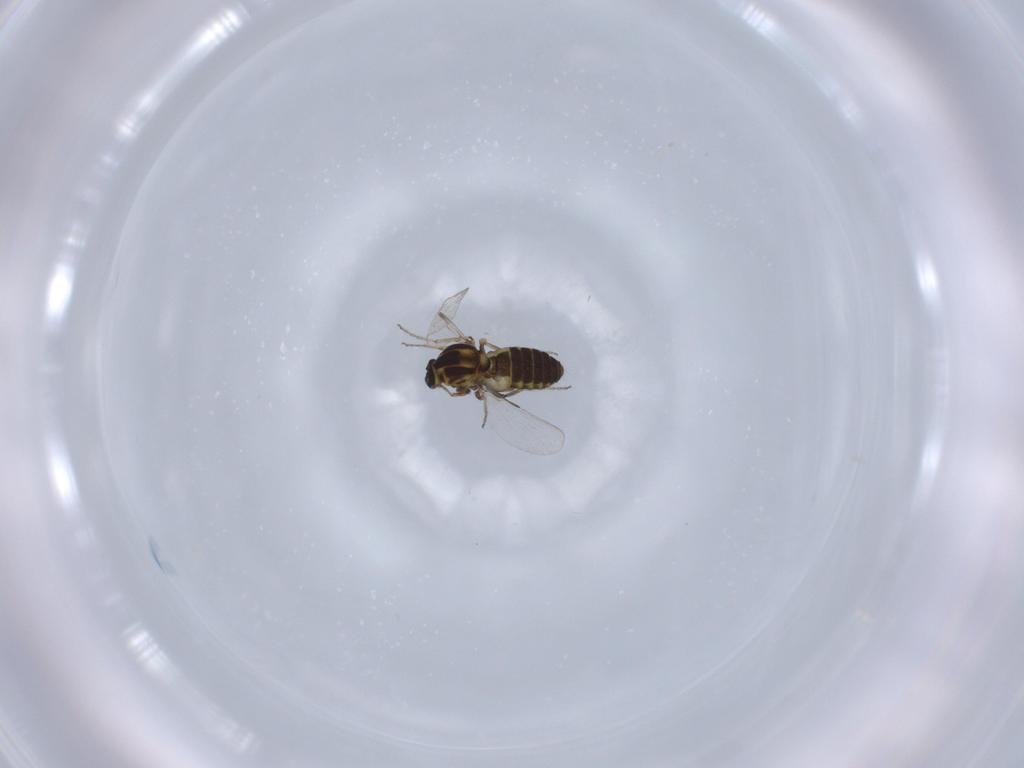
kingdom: Animalia
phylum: Arthropoda
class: Insecta
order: Diptera
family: Ceratopogonidae
